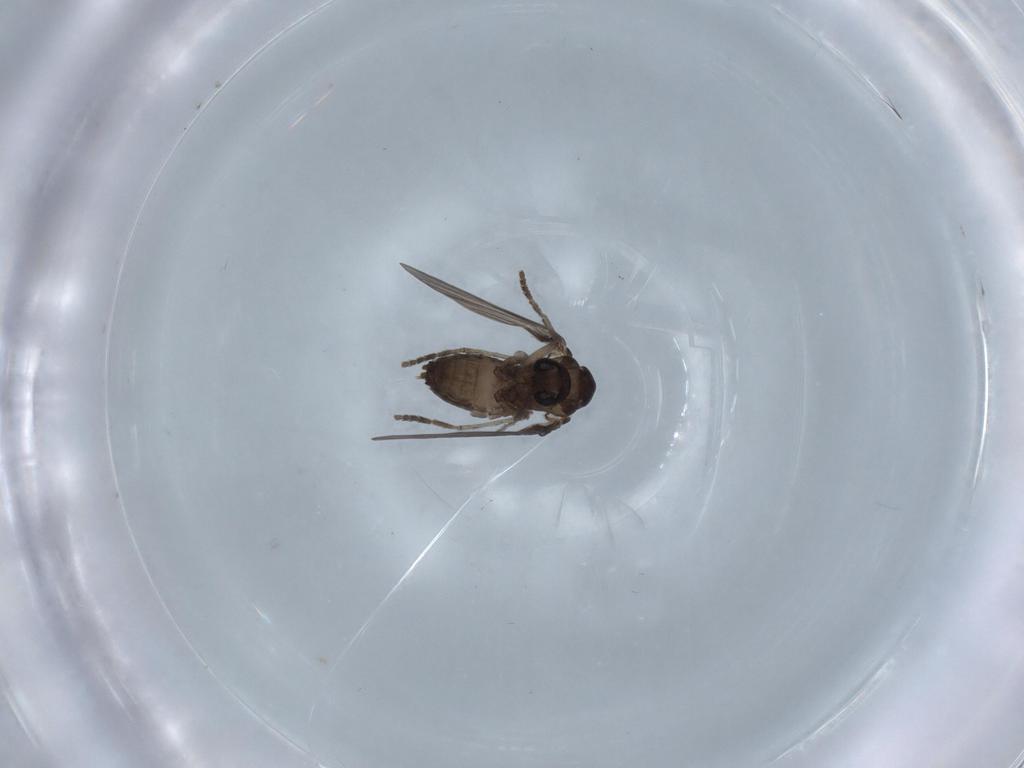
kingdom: Animalia
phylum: Arthropoda
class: Insecta
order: Diptera
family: Psychodidae
